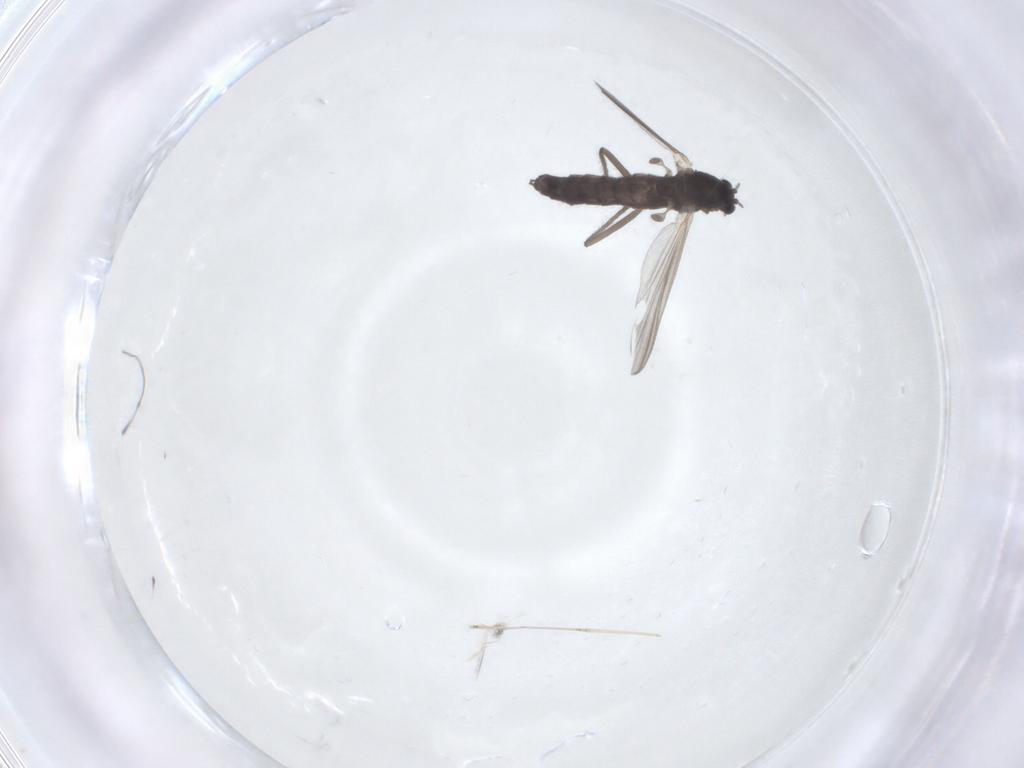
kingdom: Animalia
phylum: Arthropoda
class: Insecta
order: Diptera
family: Chironomidae
